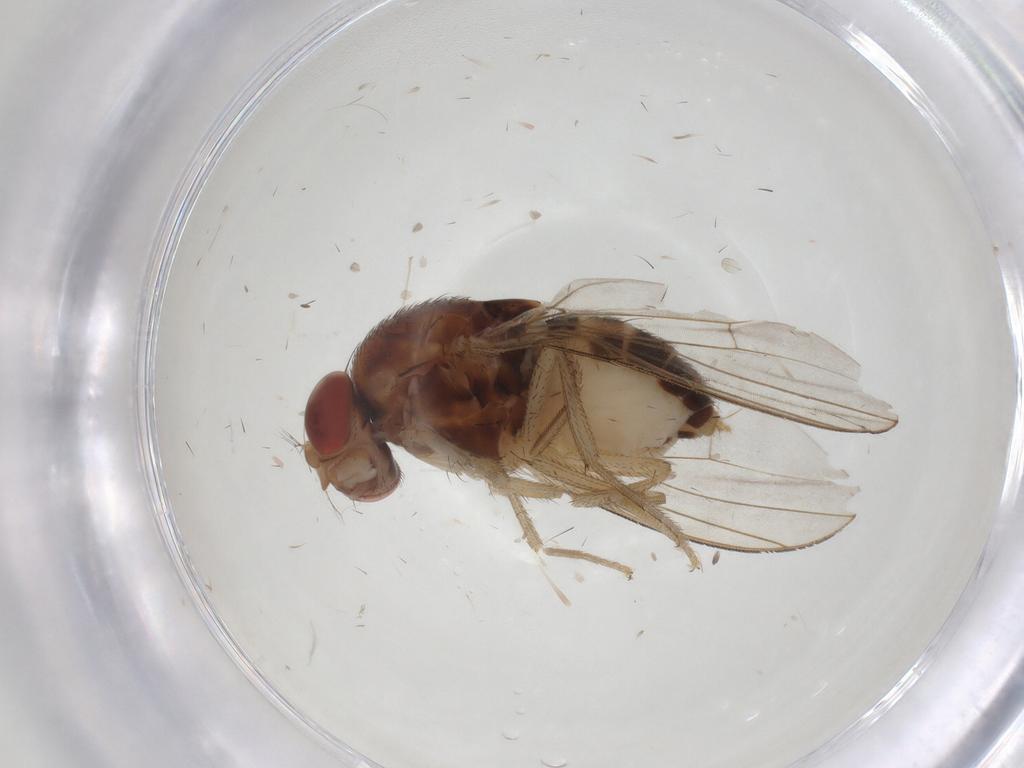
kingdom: Animalia
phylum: Arthropoda
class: Insecta
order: Diptera
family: Drosophilidae
